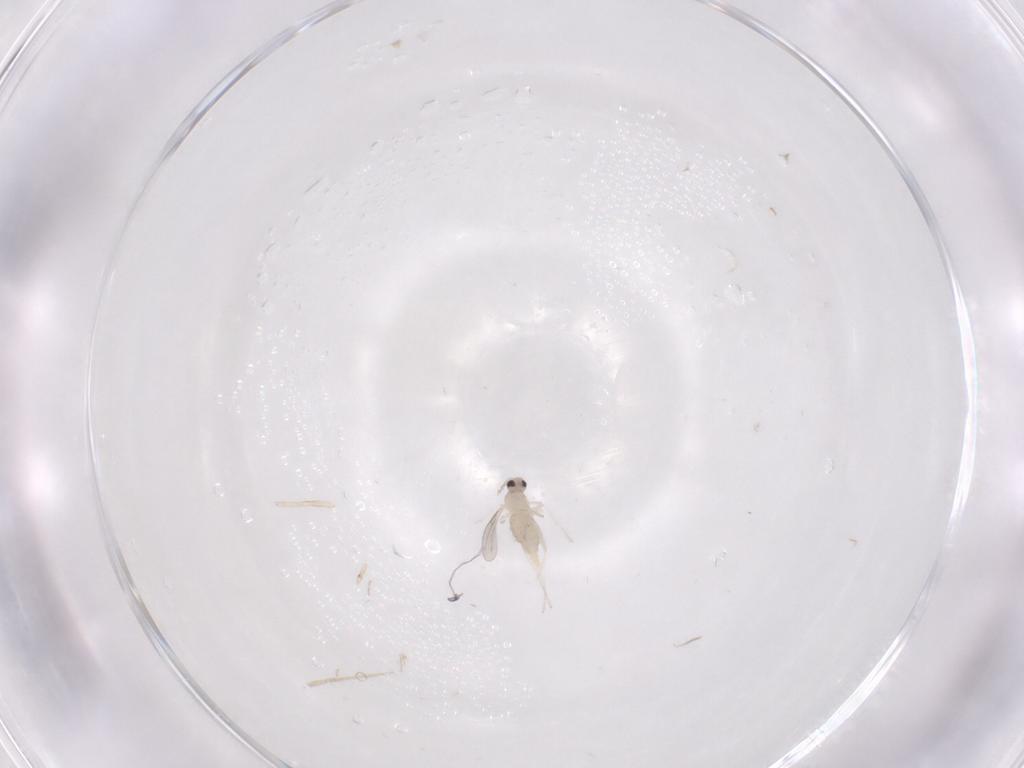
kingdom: Animalia
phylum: Arthropoda
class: Insecta
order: Diptera
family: Cecidomyiidae
